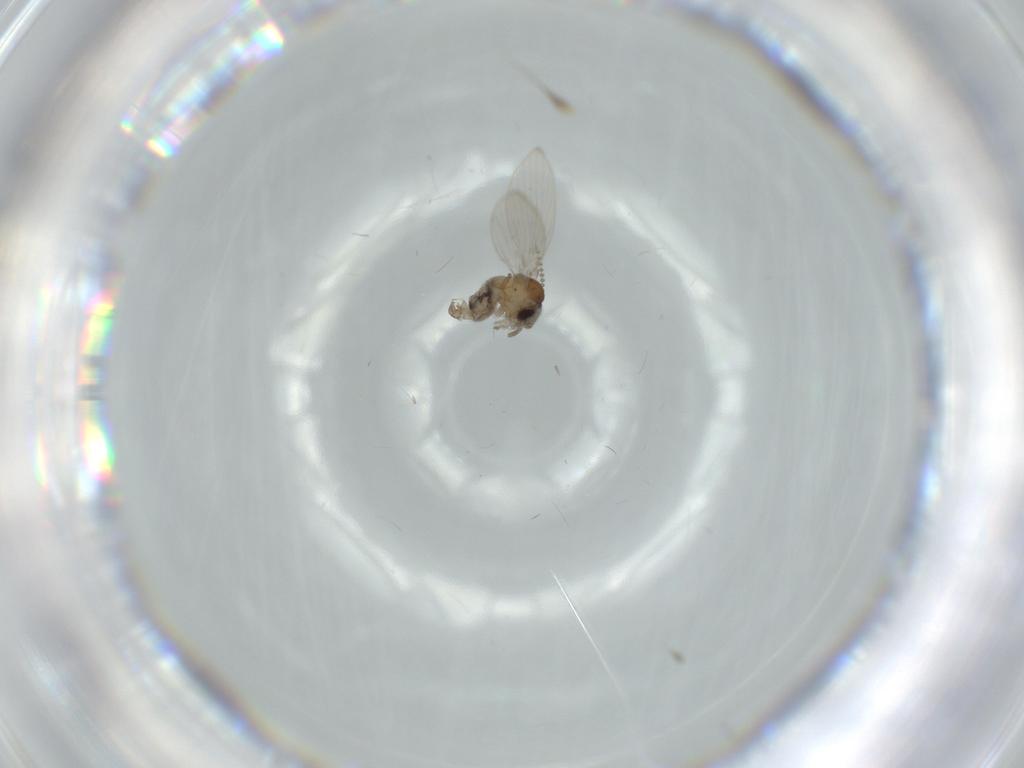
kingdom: Animalia
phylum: Arthropoda
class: Insecta
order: Diptera
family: Psychodidae
